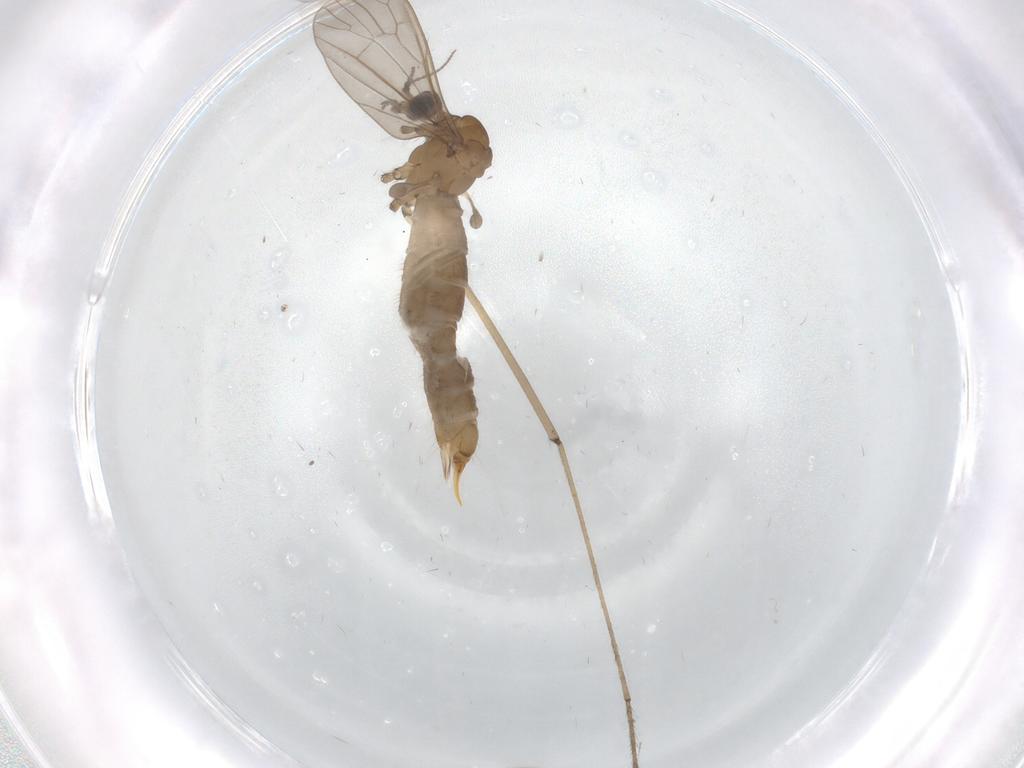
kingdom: Animalia
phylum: Arthropoda
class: Insecta
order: Diptera
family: Limoniidae
